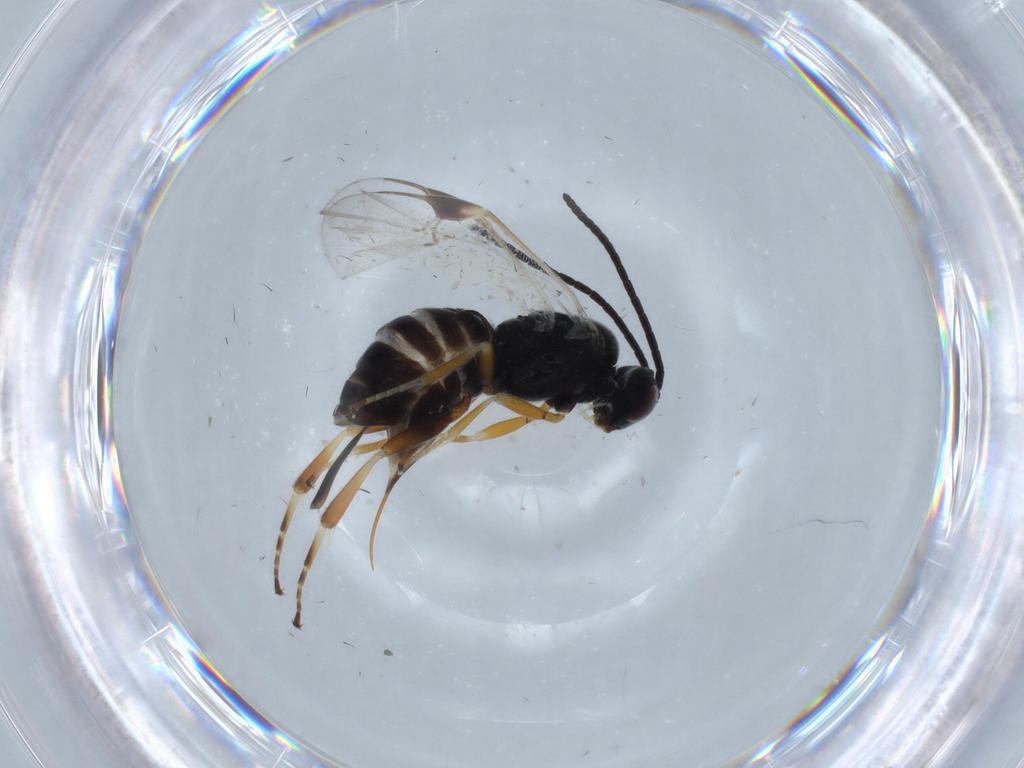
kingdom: Animalia
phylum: Arthropoda
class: Insecta
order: Hymenoptera
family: Braconidae
